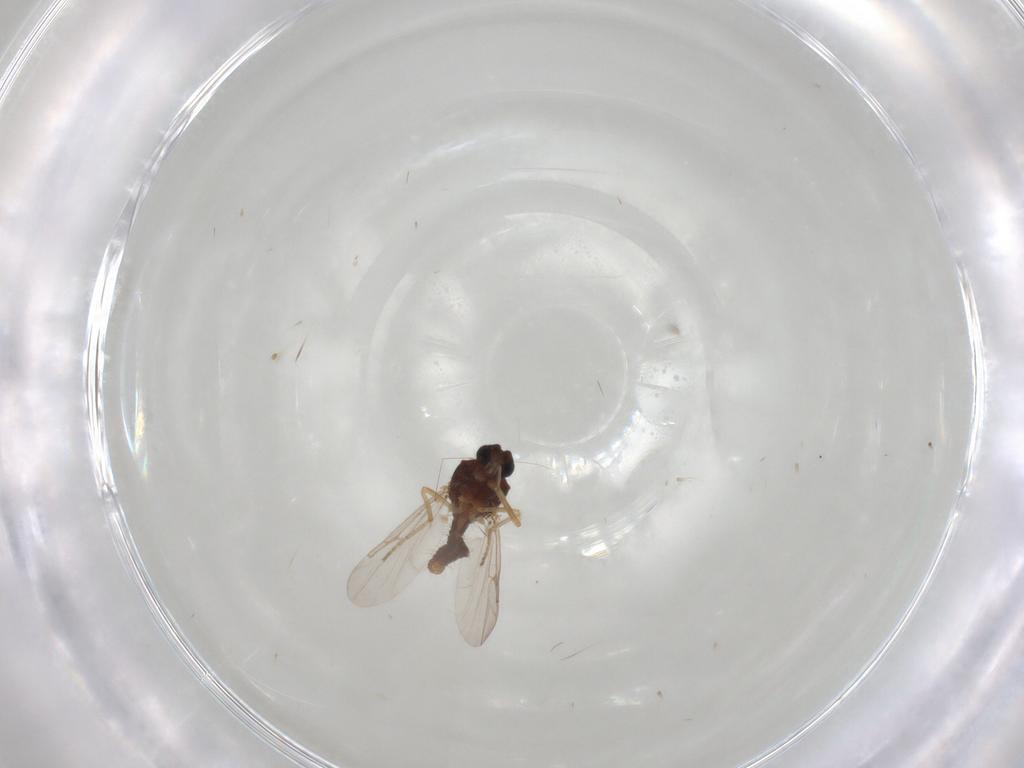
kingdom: Animalia
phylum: Arthropoda
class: Insecta
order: Diptera
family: Ceratopogonidae
